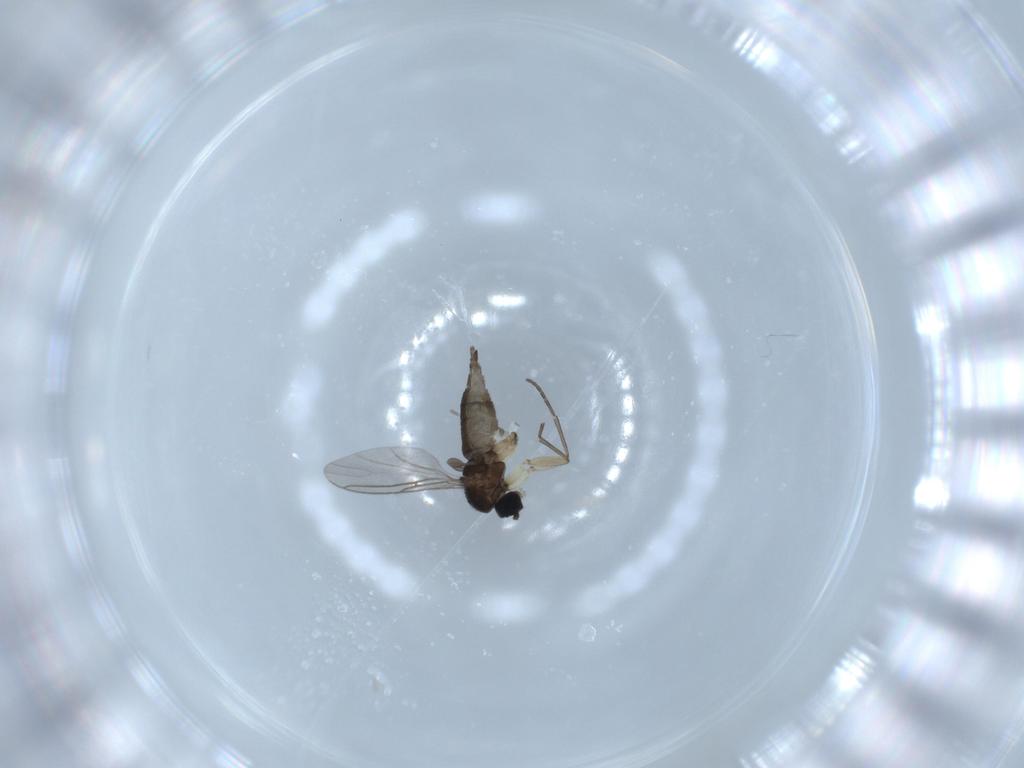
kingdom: Animalia
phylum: Arthropoda
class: Insecta
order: Diptera
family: Sciaridae
